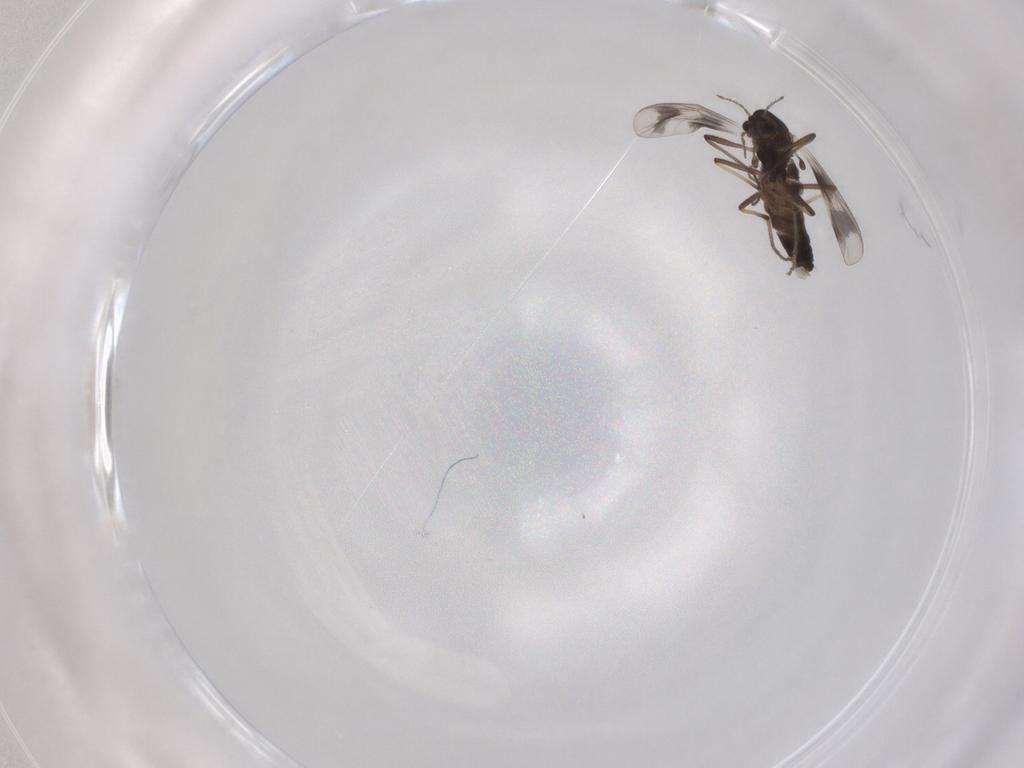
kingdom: Animalia
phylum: Arthropoda
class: Insecta
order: Diptera
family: Chironomidae
